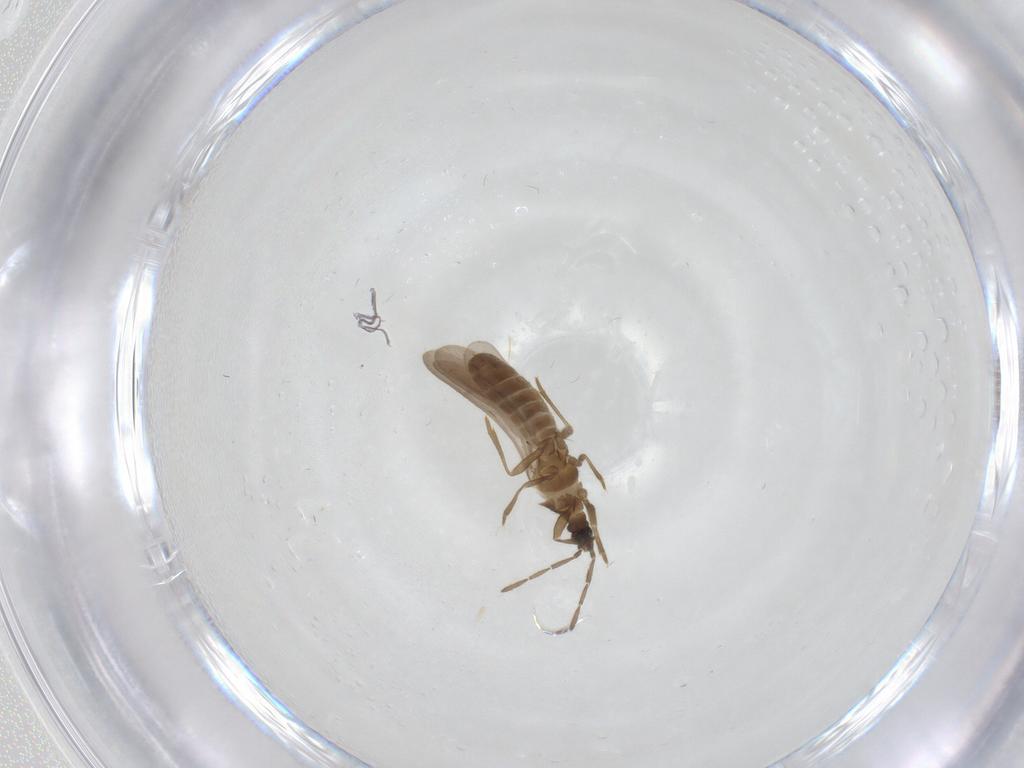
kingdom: Animalia
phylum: Arthropoda
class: Insecta
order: Hemiptera
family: Enicocephalidae
